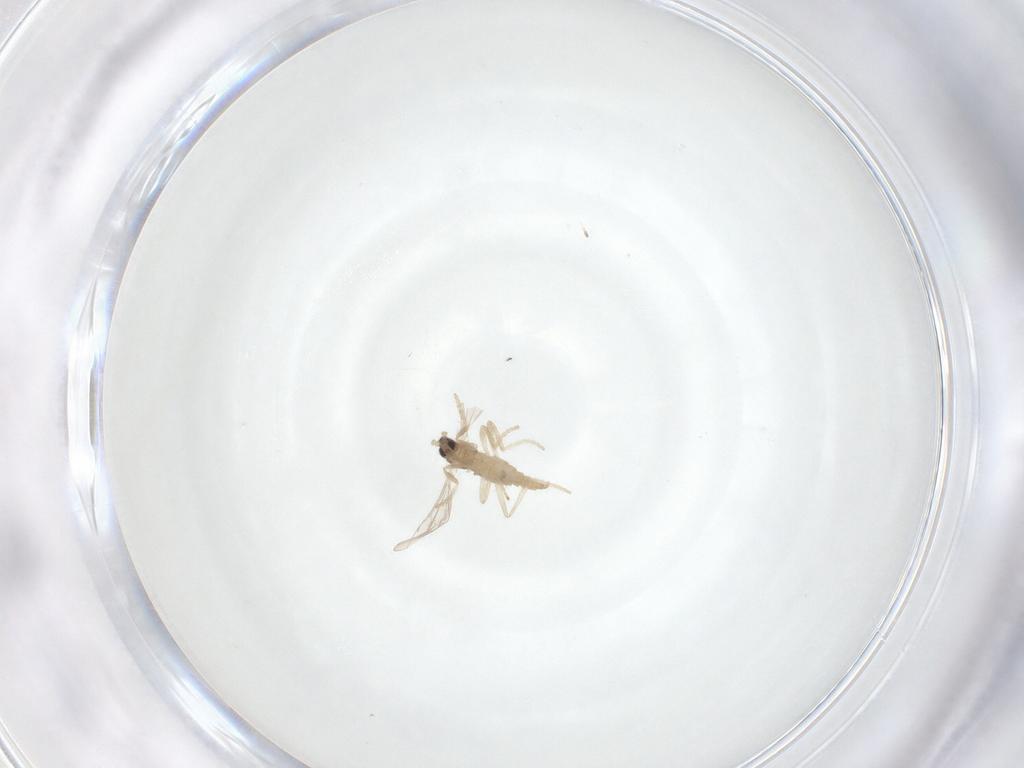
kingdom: Animalia
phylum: Arthropoda
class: Insecta
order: Diptera
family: Cecidomyiidae
